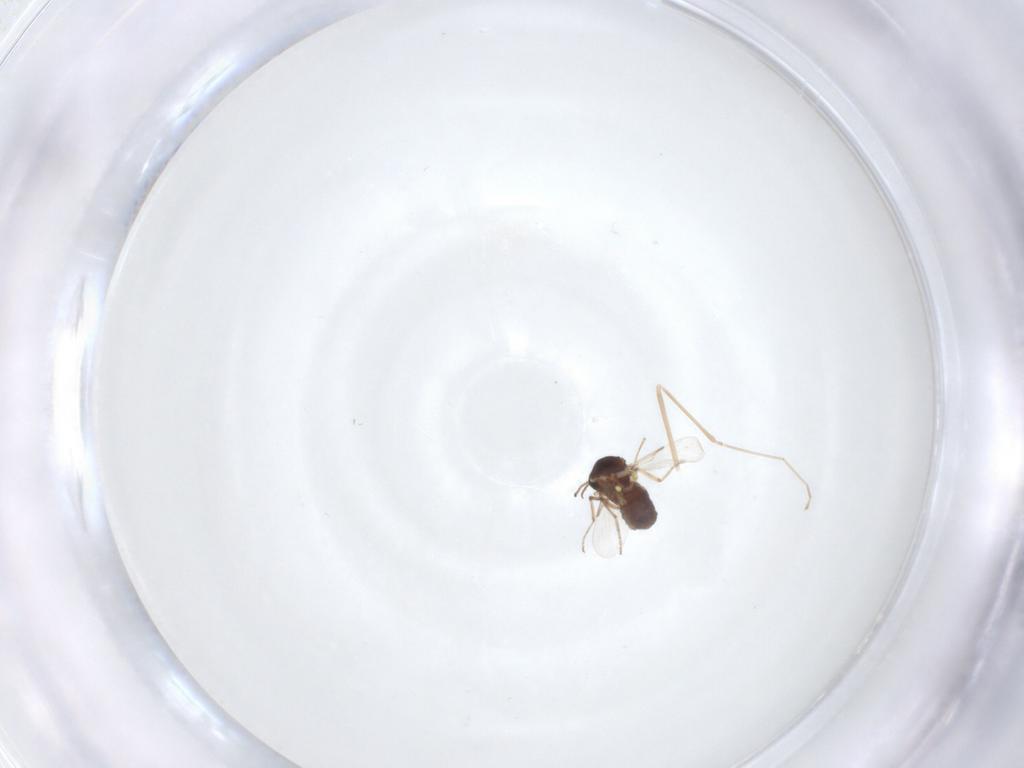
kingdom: Animalia
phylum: Arthropoda
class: Insecta
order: Diptera
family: Ceratopogonidae
